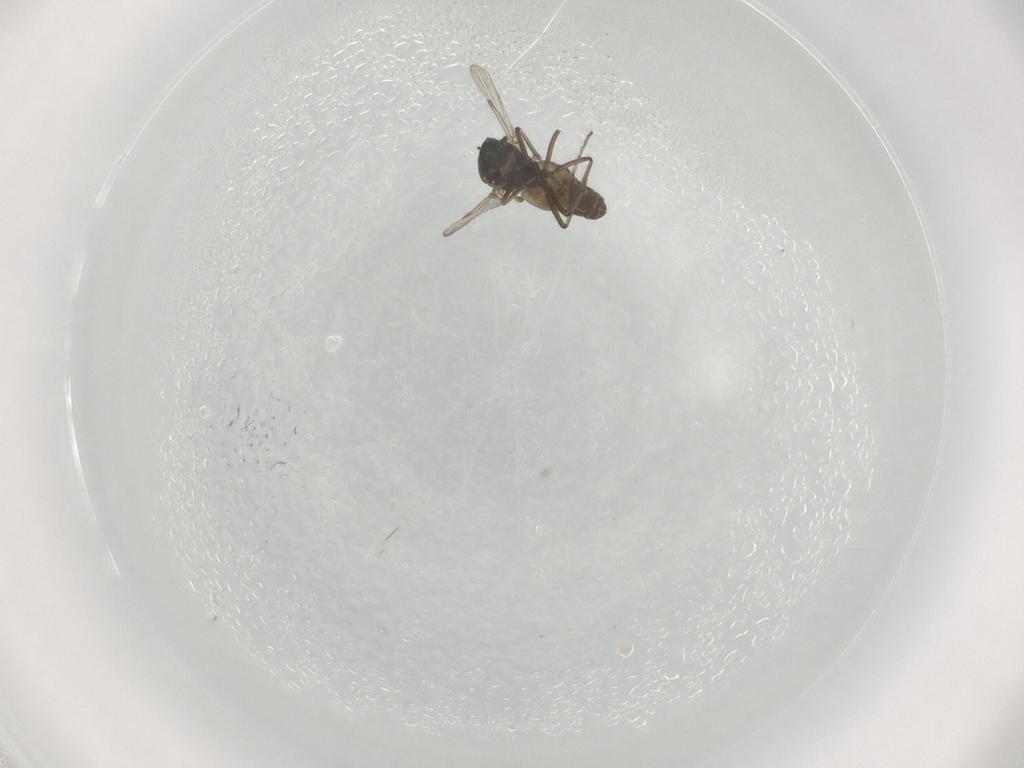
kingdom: Animalia
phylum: Arthropoda
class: Insecta
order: Diptera
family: Ceratopogonidae
